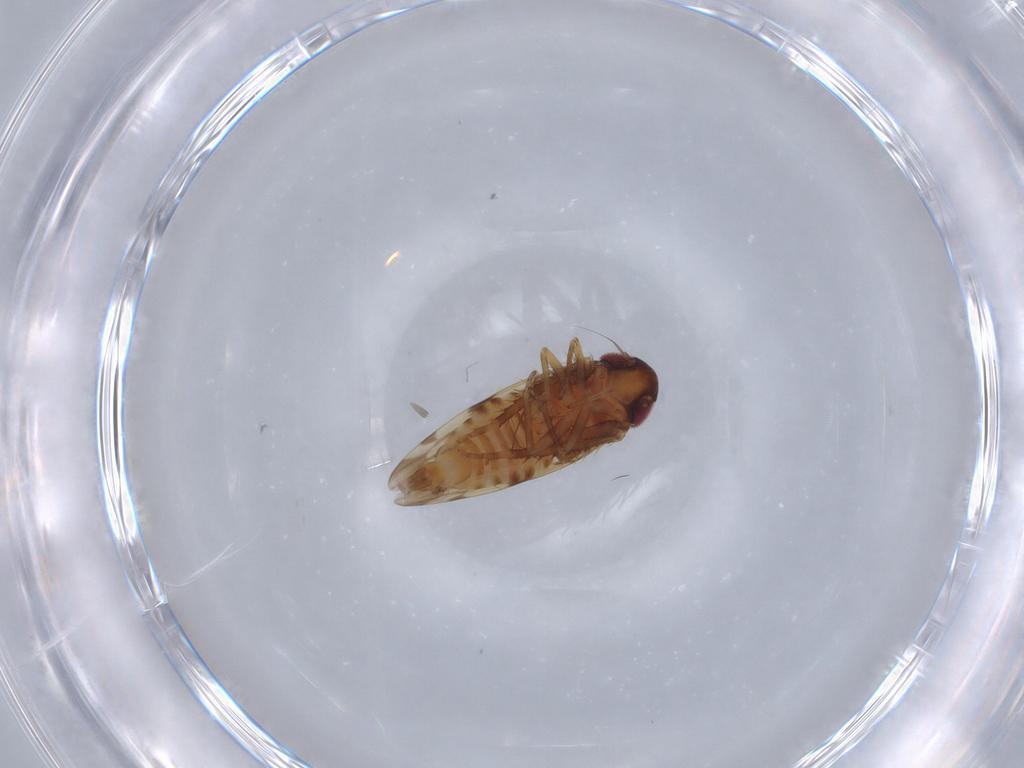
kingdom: Animalia
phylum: Arthropoda
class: Insecta
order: Hemiptera
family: Cicadellidae
